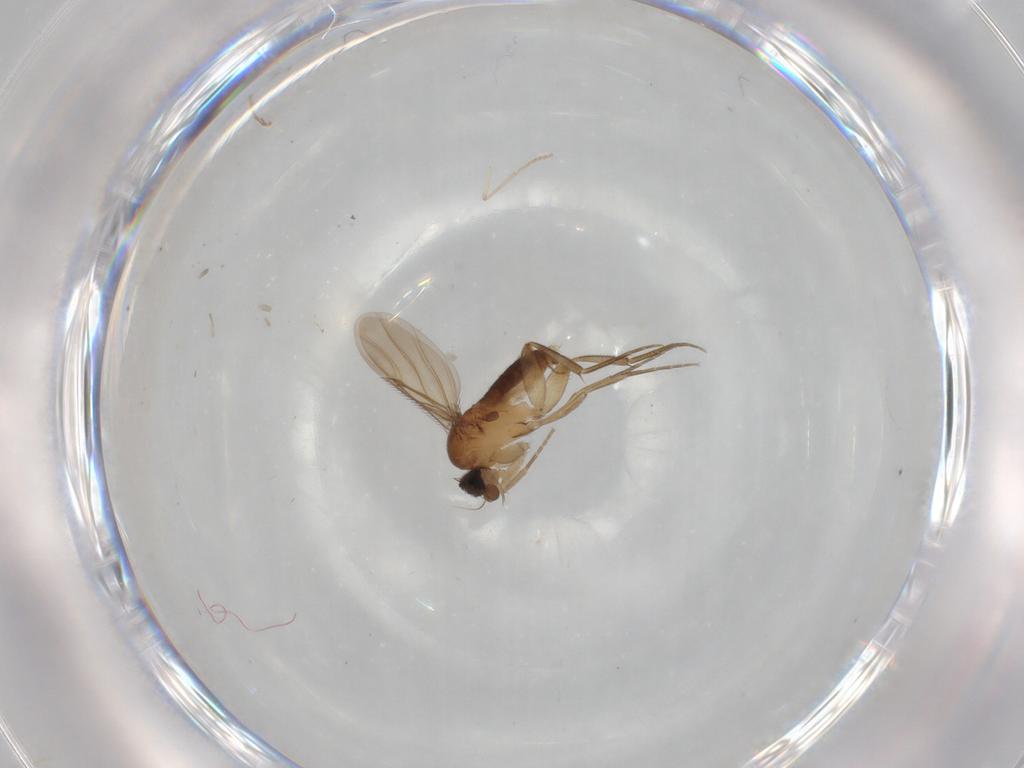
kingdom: Animalia
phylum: Arthropoda
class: Insecta
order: Diptera
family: Phoridae
